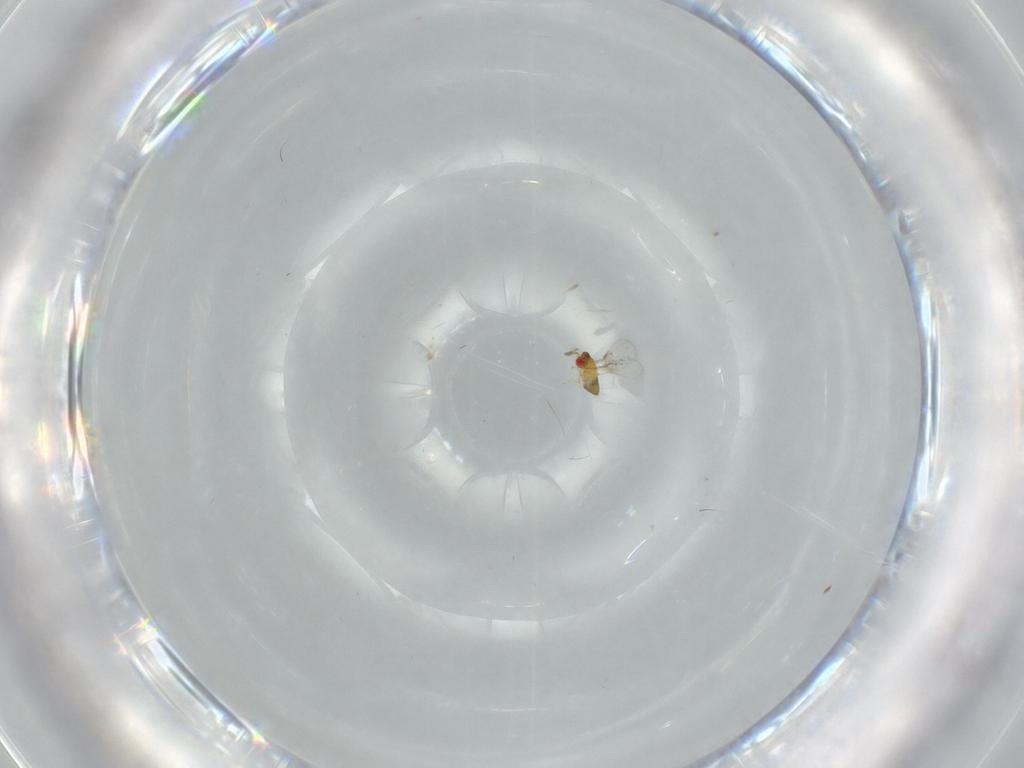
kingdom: Animalia
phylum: Arthropoda
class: Insecta
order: Hymenoptera
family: Trichogrammatidae
